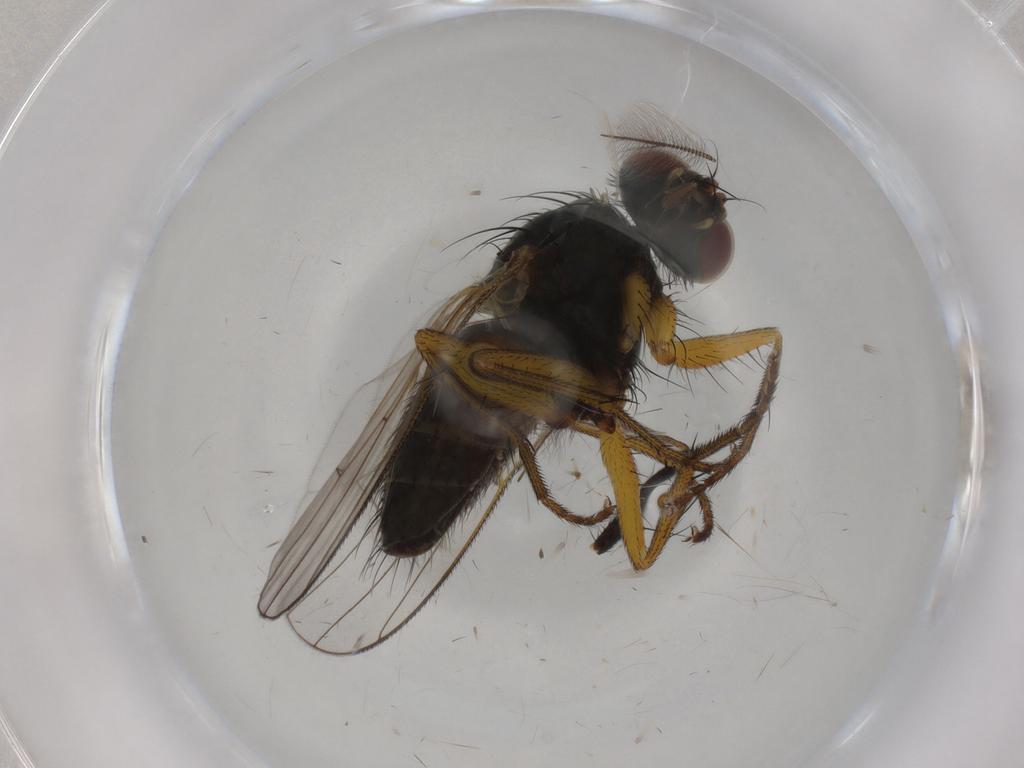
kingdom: Animalia
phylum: Arthropoda
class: Insecta
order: Diptera
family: Muscidae
